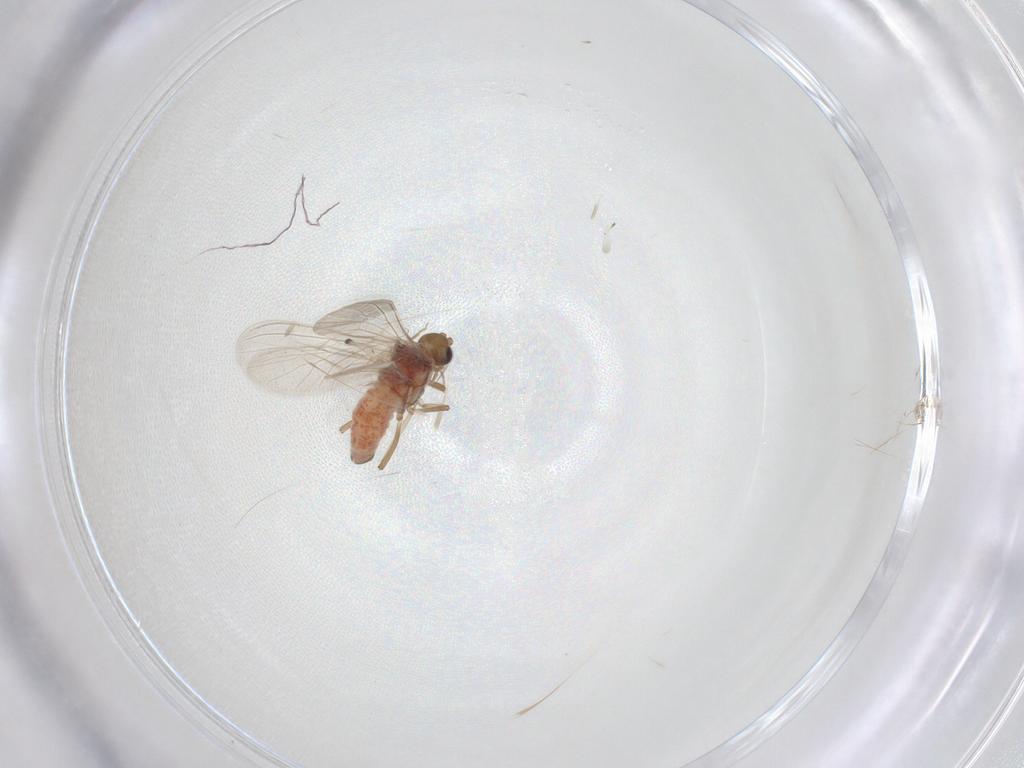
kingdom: Animalia
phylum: Arthropoda
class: Insecta
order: Neuroptera
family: Coniopterygidae
